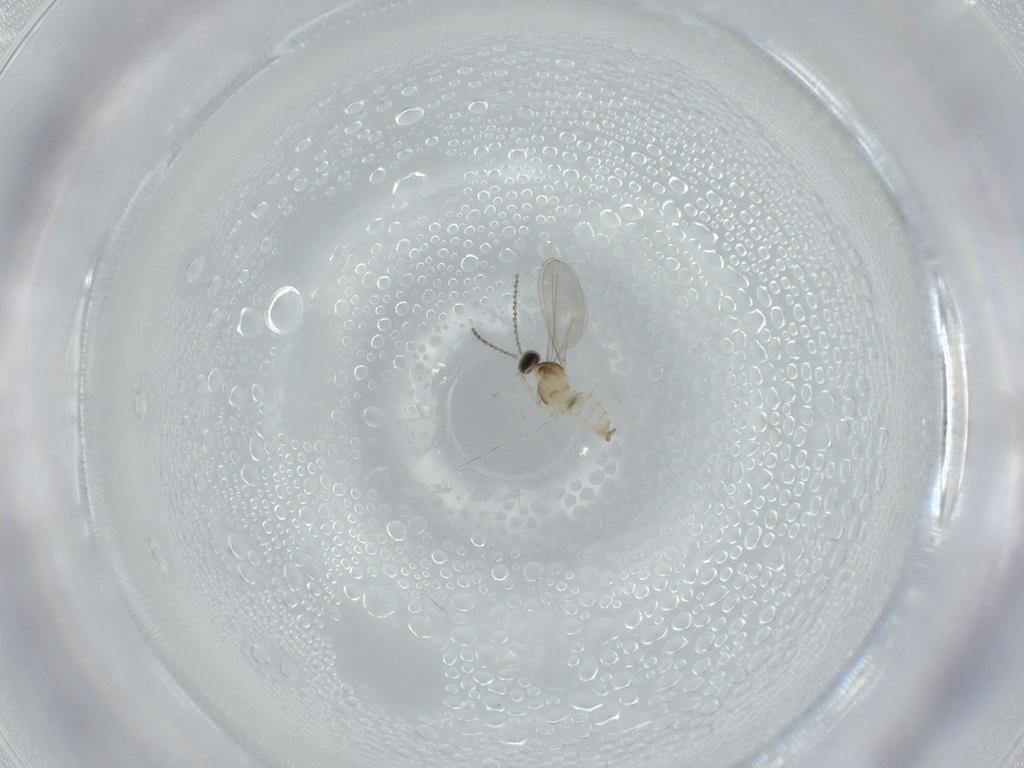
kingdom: Animalia
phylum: Arthropoda
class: Insecta
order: Diptera
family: Cecidomyiidae
